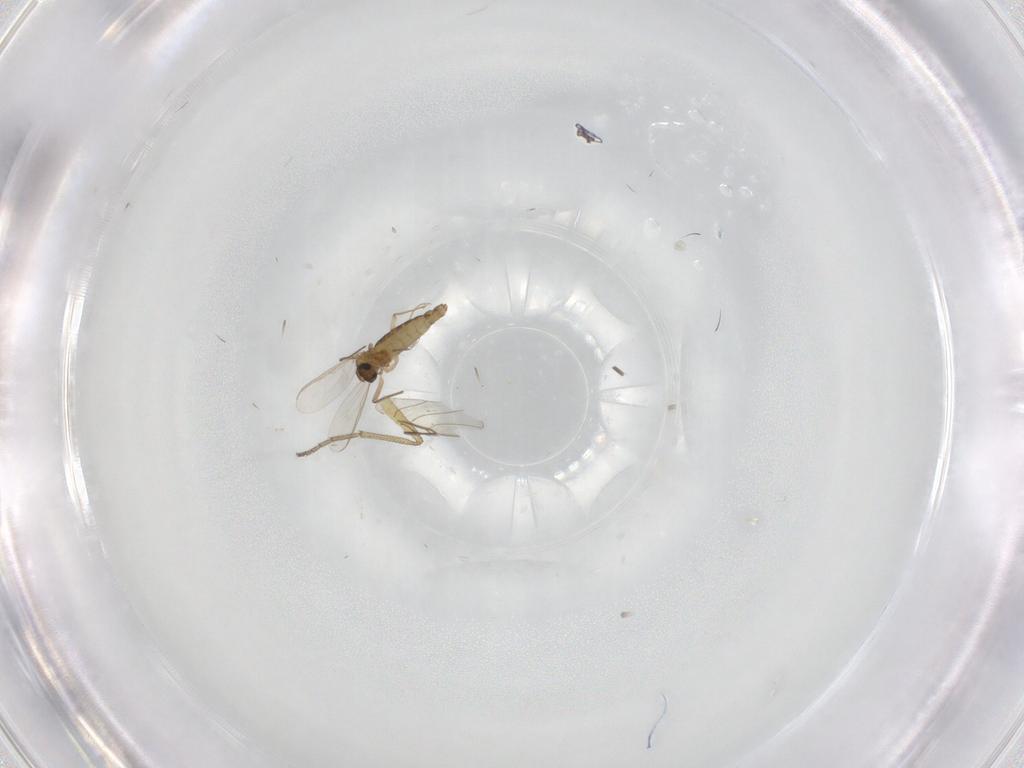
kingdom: Animalia
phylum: Arthropoda
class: Insecta
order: Diptera
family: Chironomidae
